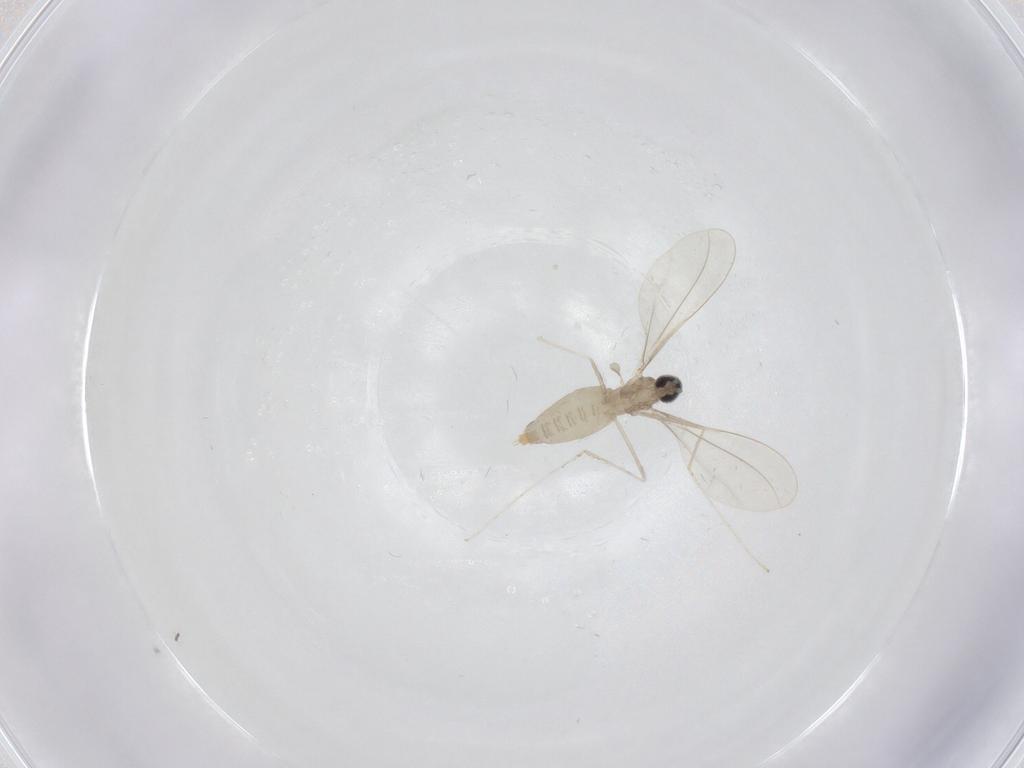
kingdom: Animalia
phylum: Arthropoda
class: Insecta
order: Diptera
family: Cecidomyiidae
